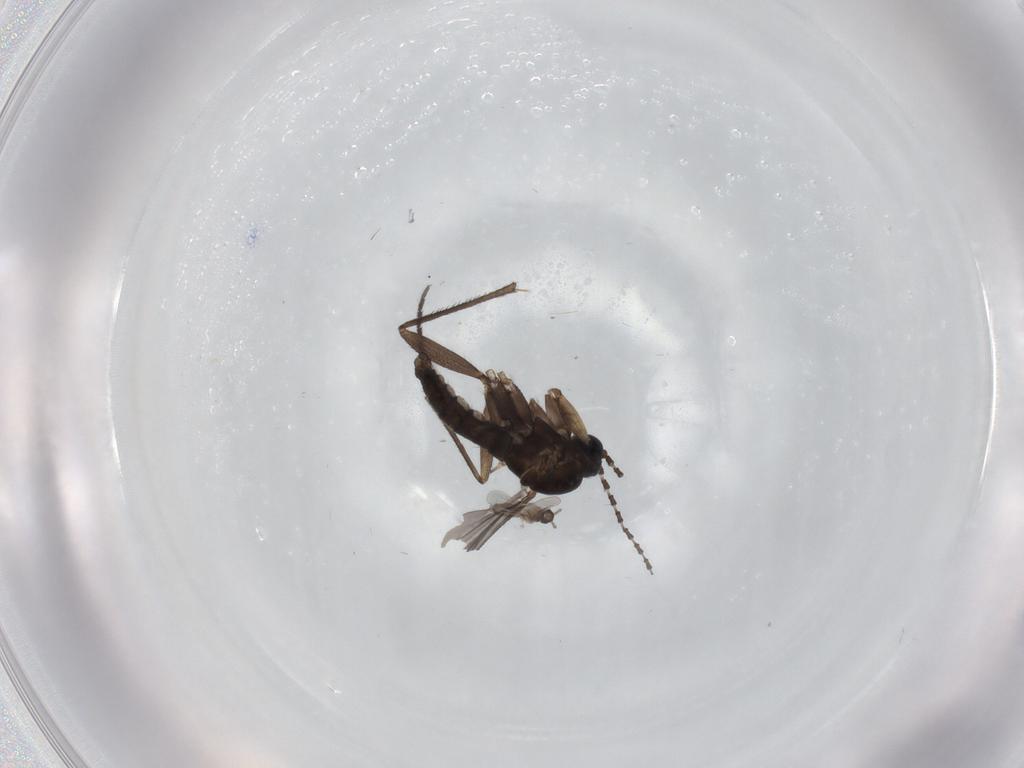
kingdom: Animalia
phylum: Arthropoda
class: Insecta
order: Diptera
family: Sciaridae
